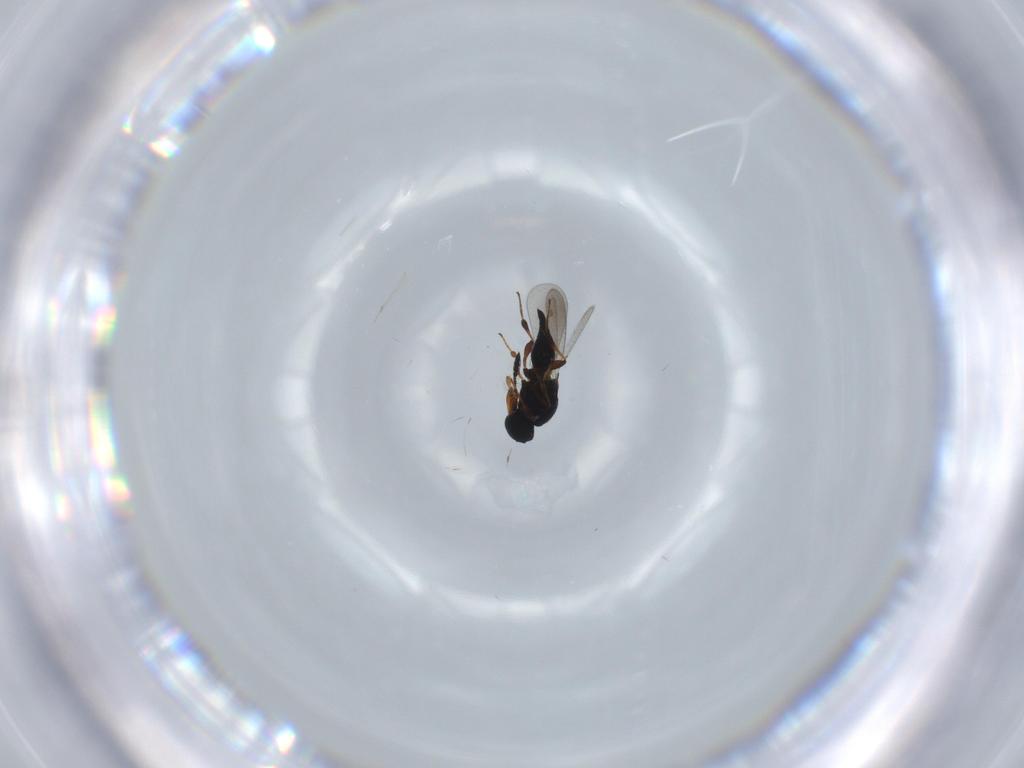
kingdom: Animalia
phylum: Arthropoda
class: Insecta
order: Hymenoptera
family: Platygastridae
